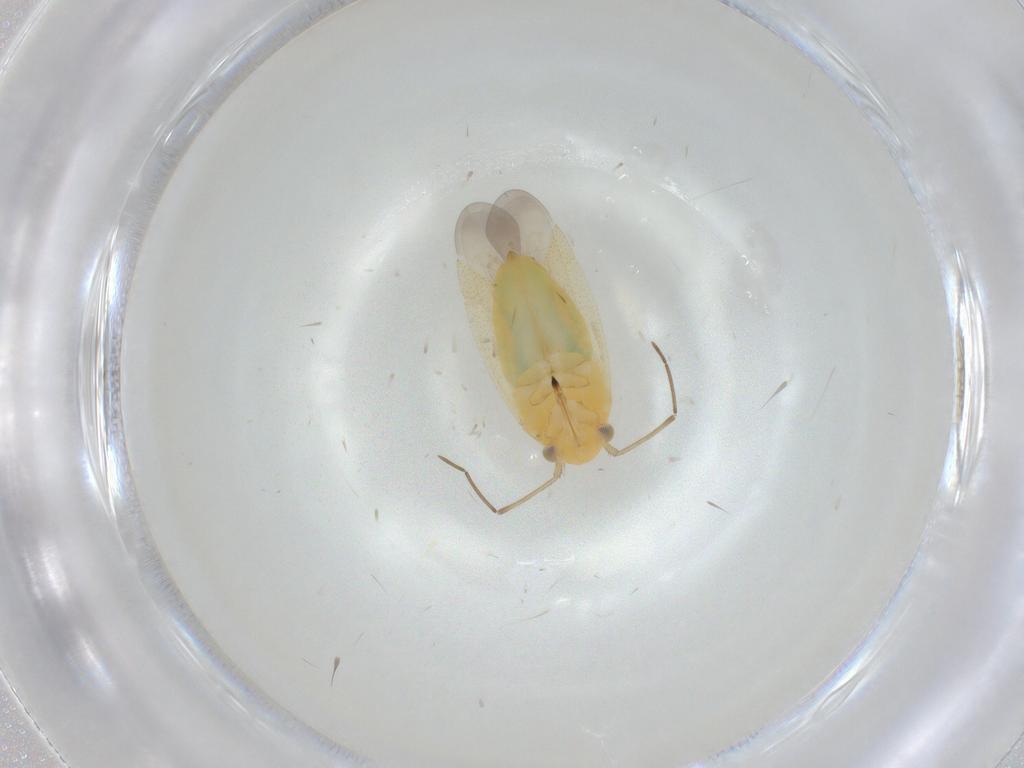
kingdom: Animalia
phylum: Arthropoda
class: Insecta
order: Hemiptera
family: Miridae
